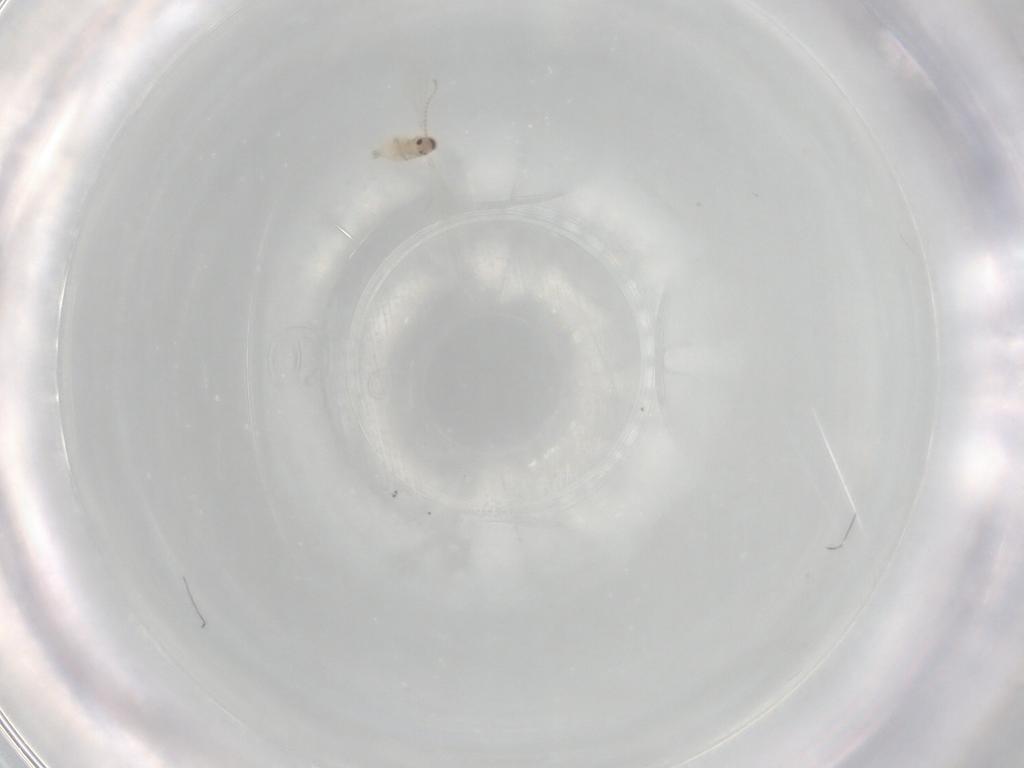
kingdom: Animalia
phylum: Arthropoda
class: Insecta
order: Diptera
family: Cecidomyiidae
